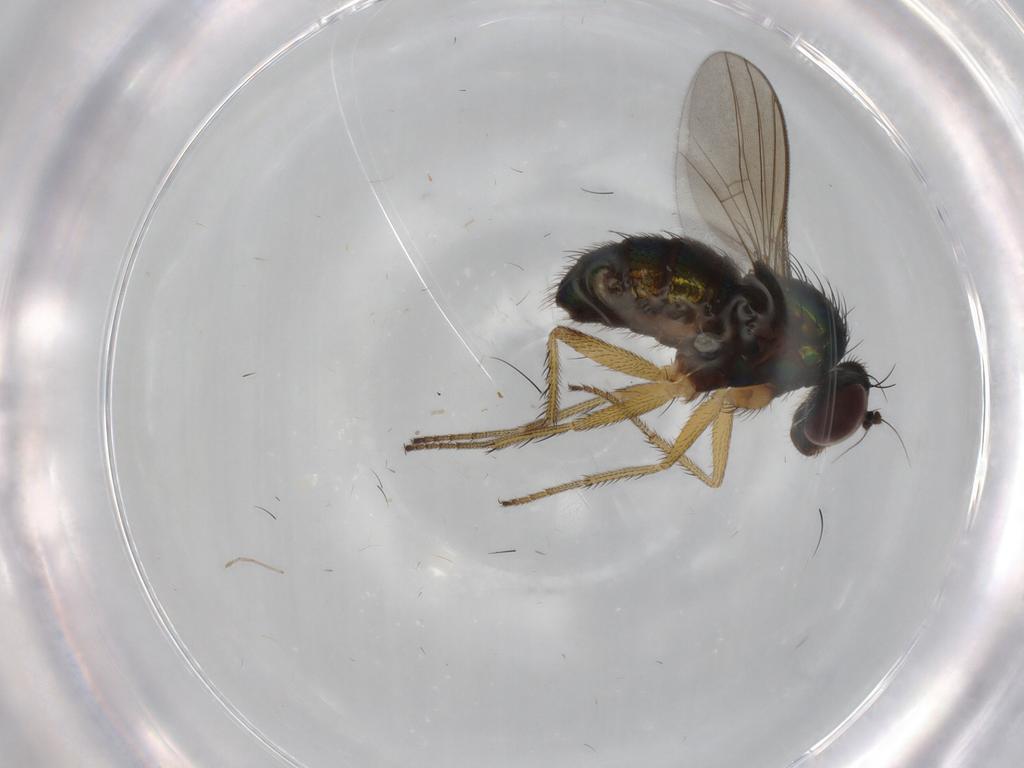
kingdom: Animalia
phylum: Arthropoda
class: Insecta
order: Diptera
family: Dolichopodidae
